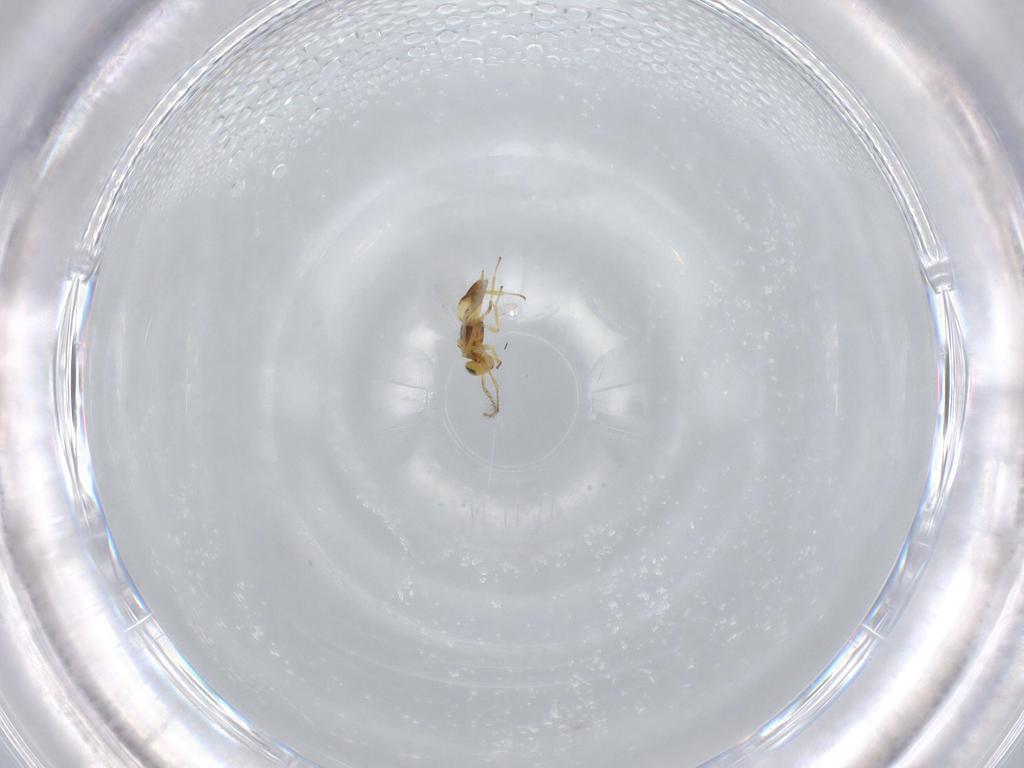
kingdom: Animalia
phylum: Arthropoda
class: Insecta
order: Hymenoptera
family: Encyrtidae
